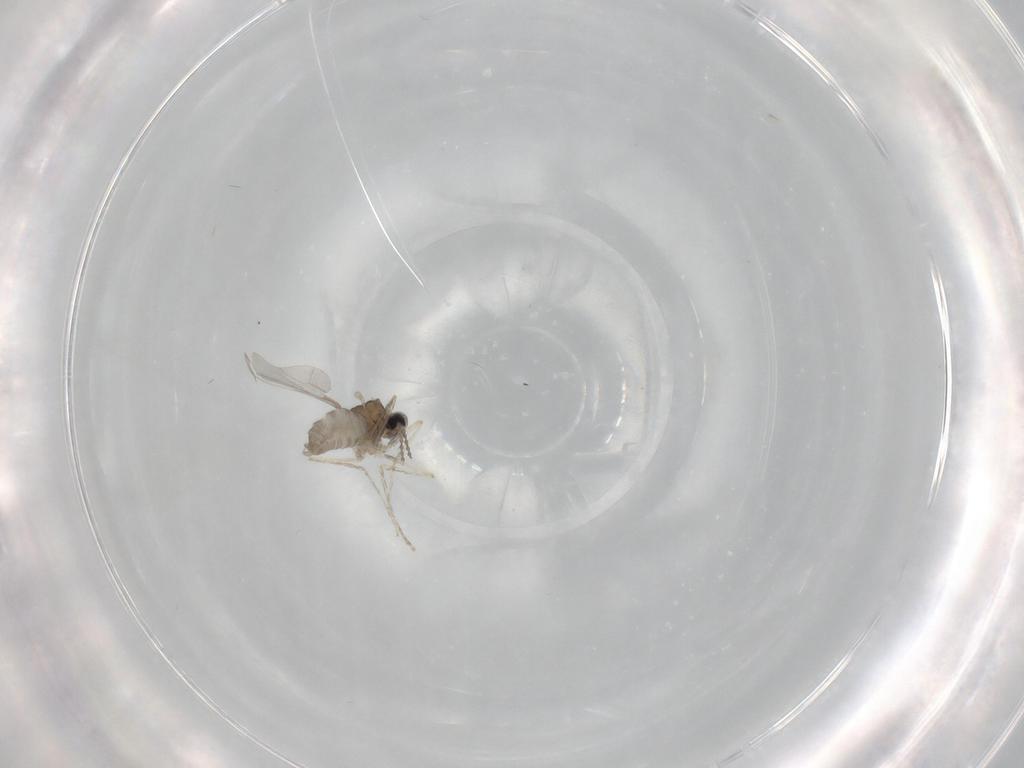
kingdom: Animalia
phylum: Arthropoda
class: Insecta
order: Diptera
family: Cecidomyiidae
